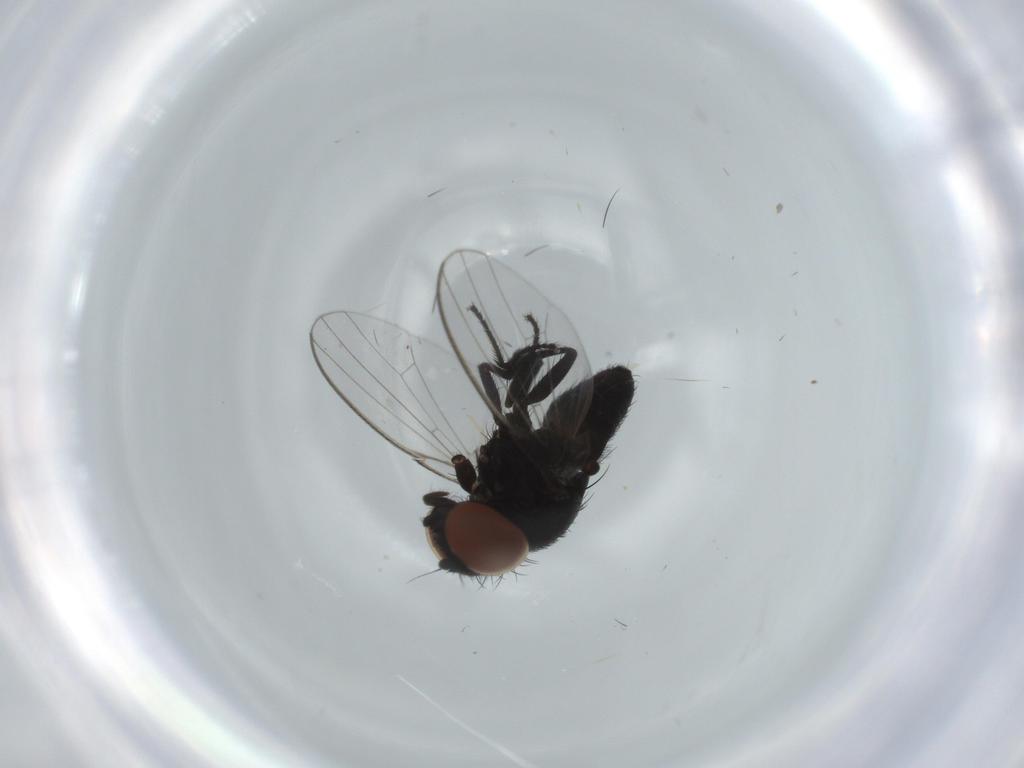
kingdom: Animalia
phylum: Arthropoda
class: Insecta
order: Diptera
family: Milichiidae
